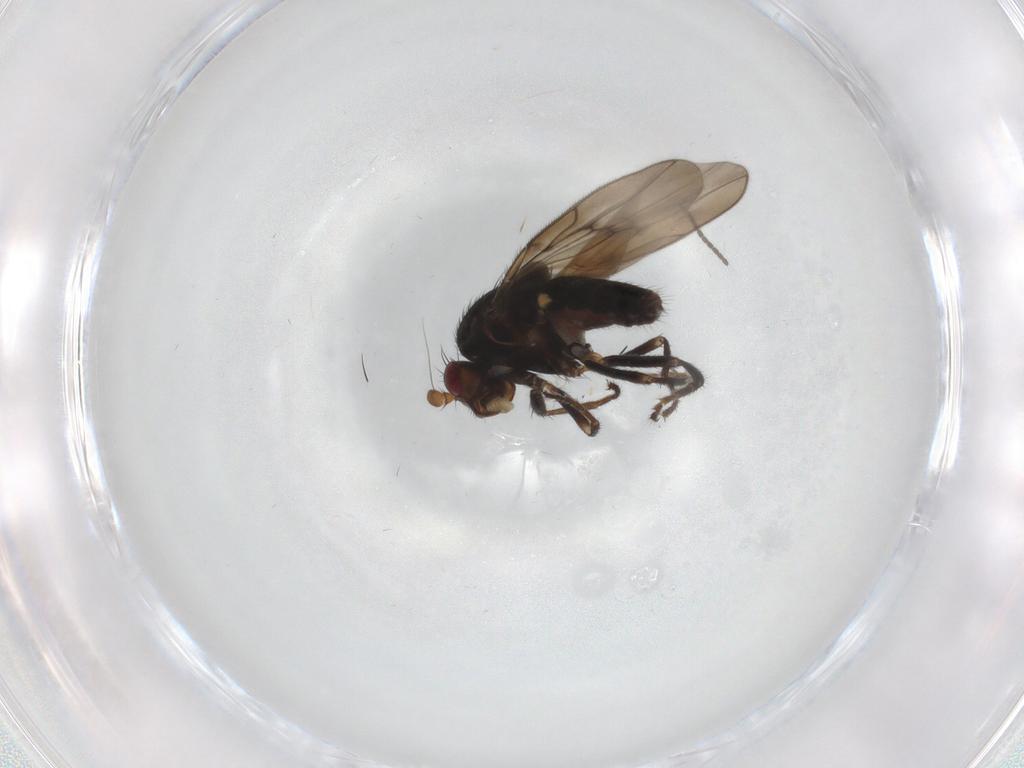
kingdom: Animalia
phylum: Arthropoda
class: Insecta
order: Diptera
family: Sphaeroceridae
